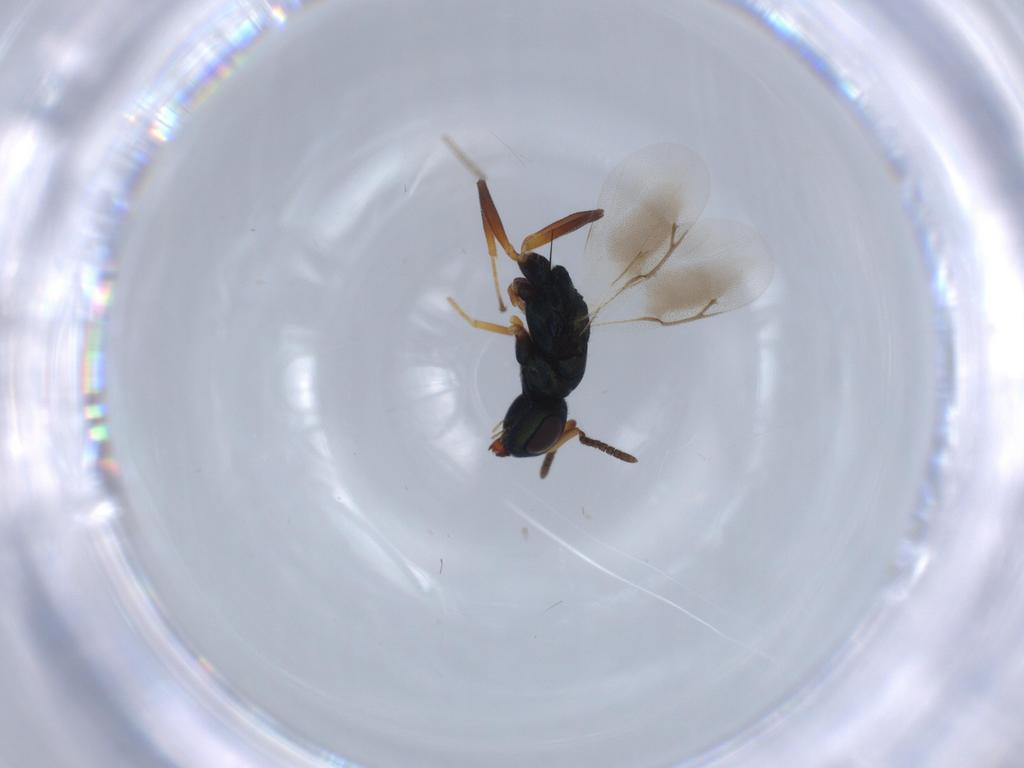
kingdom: Animalia
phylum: Arthropoda
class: Insecta
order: Hymenoptera
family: Pteromalidae
